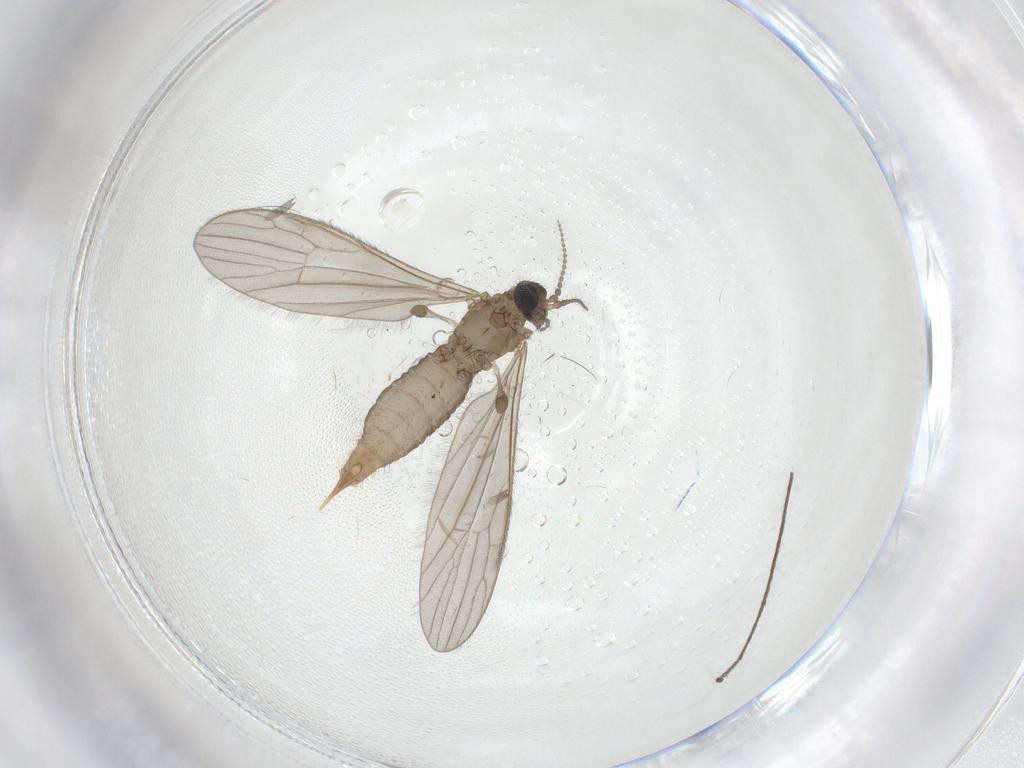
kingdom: Animalia
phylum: Arthropoda
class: Insecta
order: Diptera
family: Limoniidae
